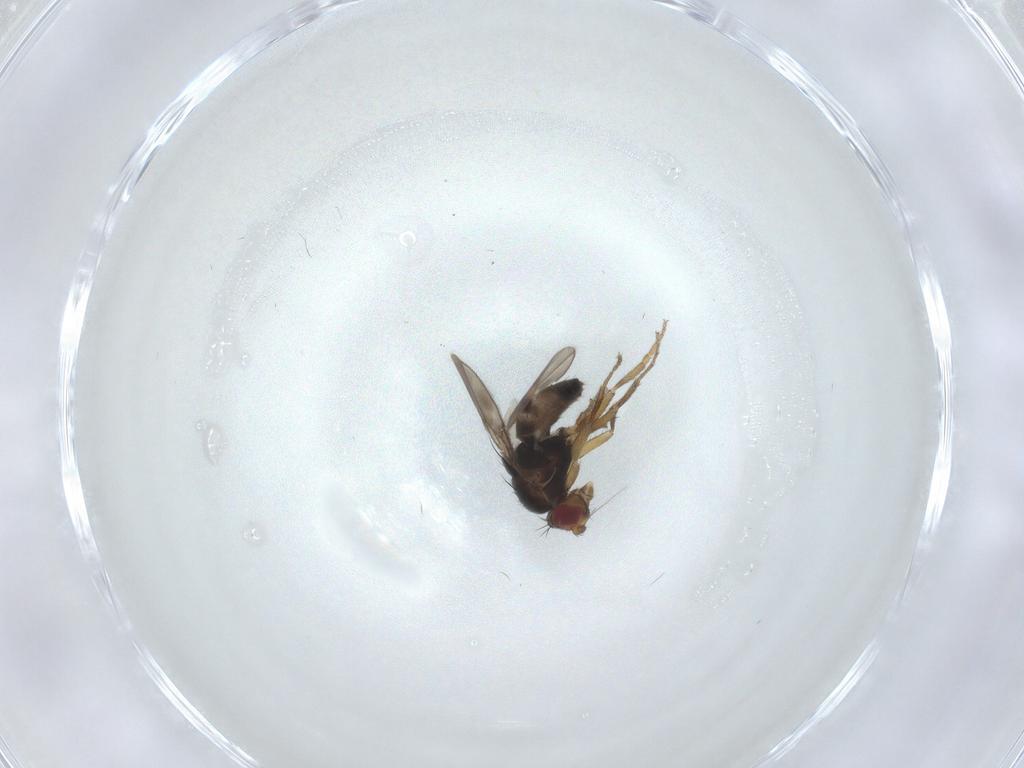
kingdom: Animalia
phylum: Arthropoda
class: Insecta
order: Diptera
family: Sphaeroceridae
